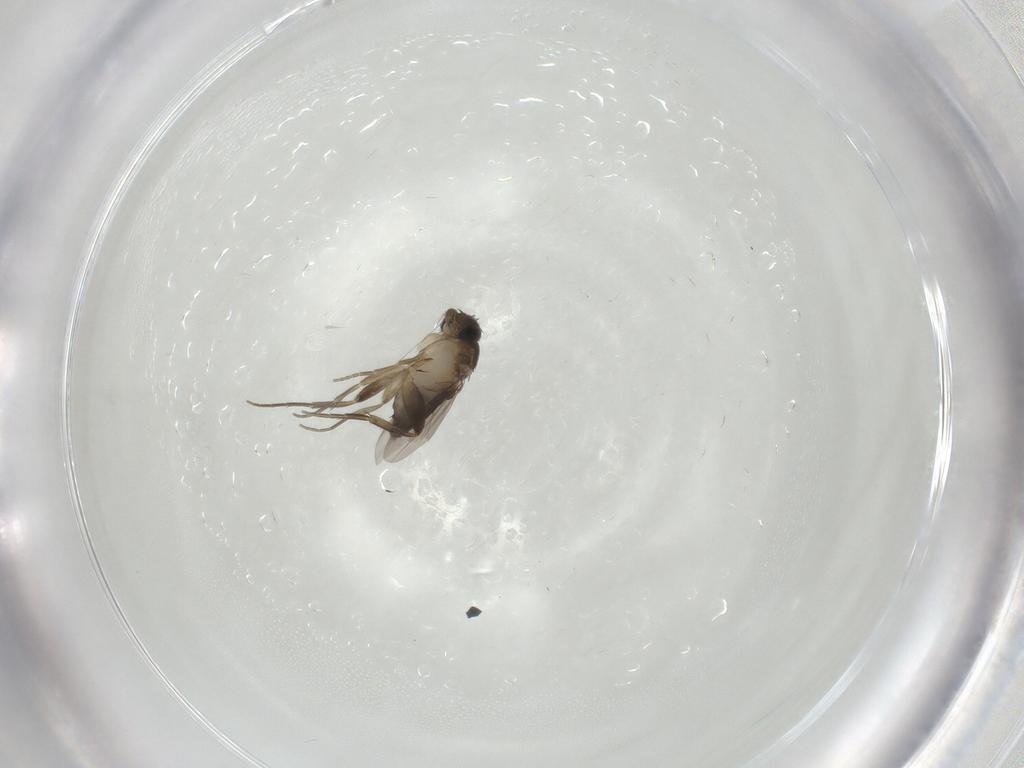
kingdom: Animalia
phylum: Arthropoda
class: Insecta
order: Diptera
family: Phoridae
